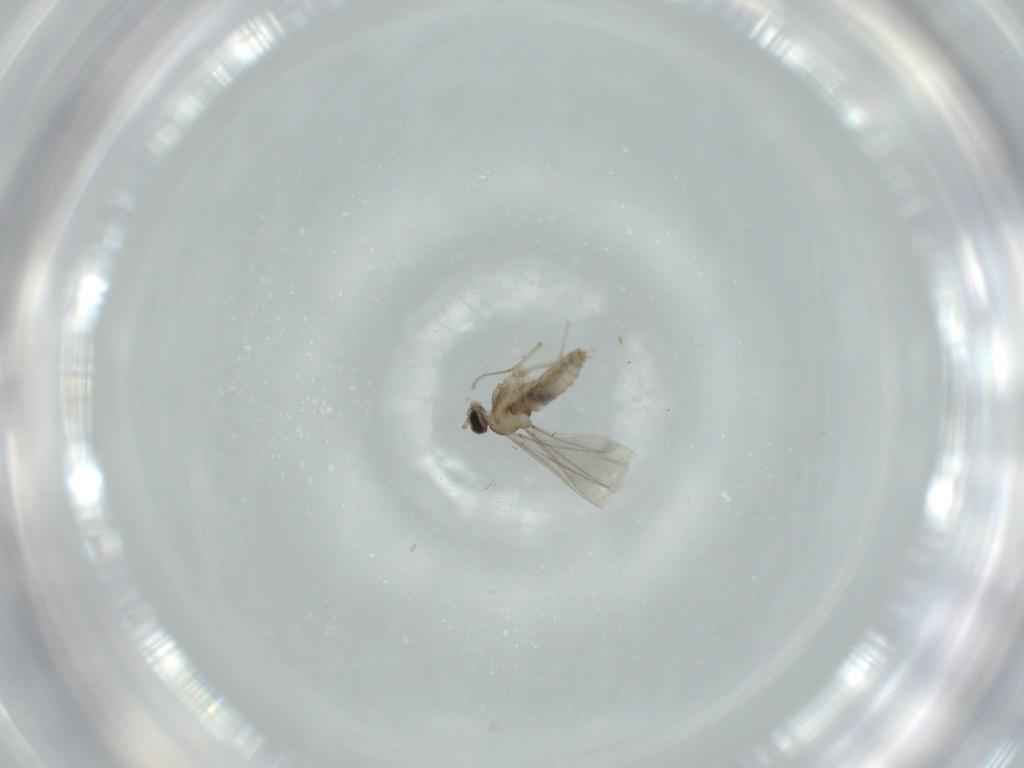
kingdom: Animalia
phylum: Arthropoda
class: Insecta
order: Diptera
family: Cecidomyiidae
